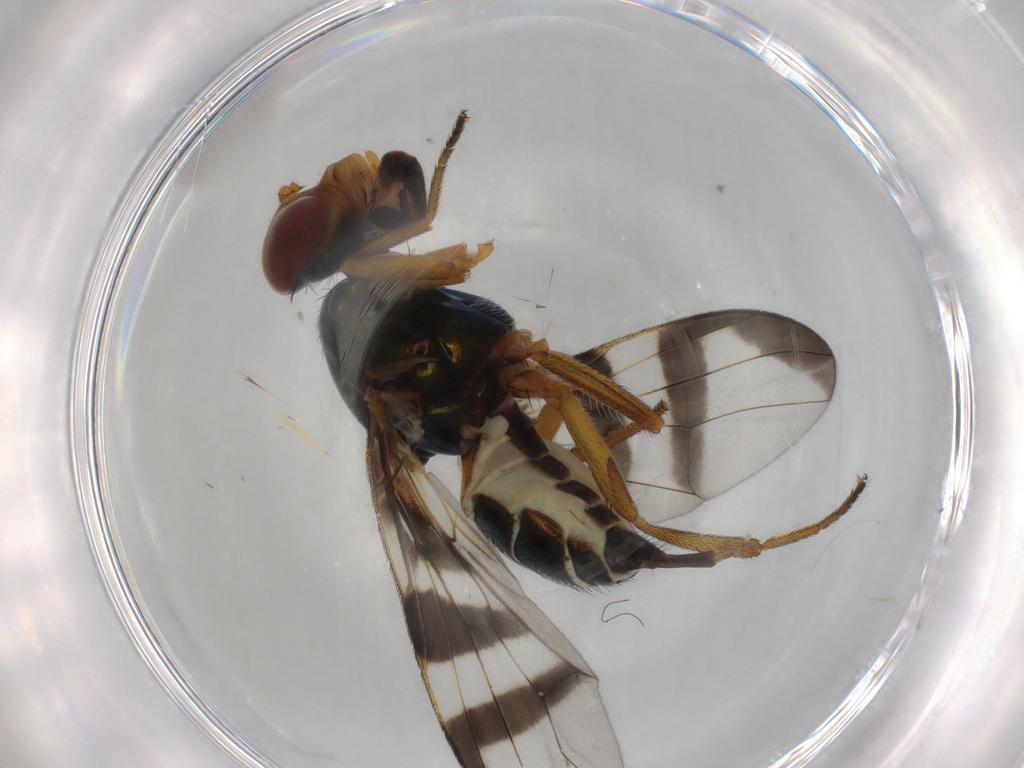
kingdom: Animalia
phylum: Arthropoda
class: Insecta
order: Diptera
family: Platystomatidae
